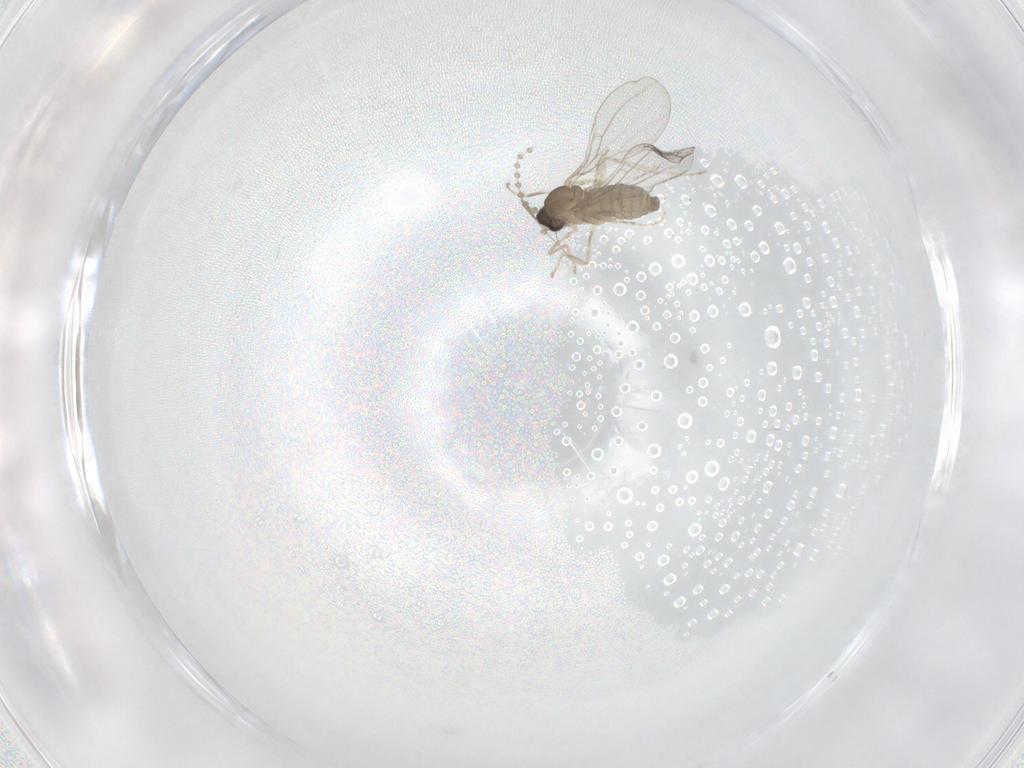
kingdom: Animalia
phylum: Arthropoda
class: Insecta
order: Diptera
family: Cecidomyiidae
